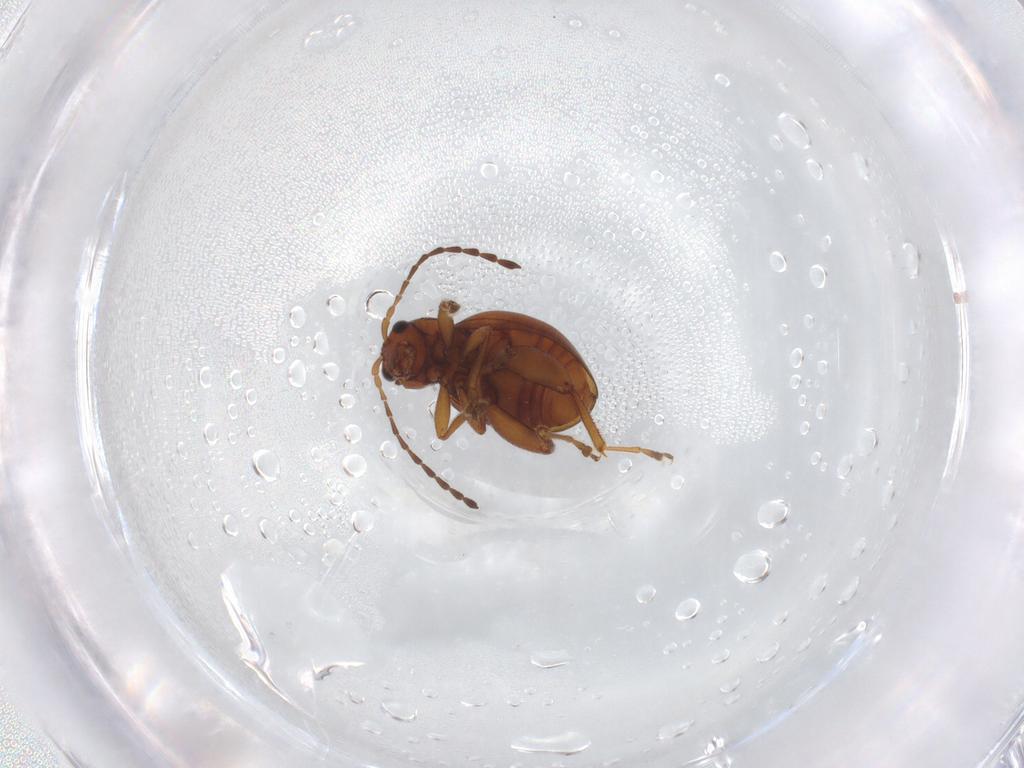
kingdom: Animalia
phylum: Arthropoda
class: Insecta
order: Coleoptera
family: Chrysomelidae
